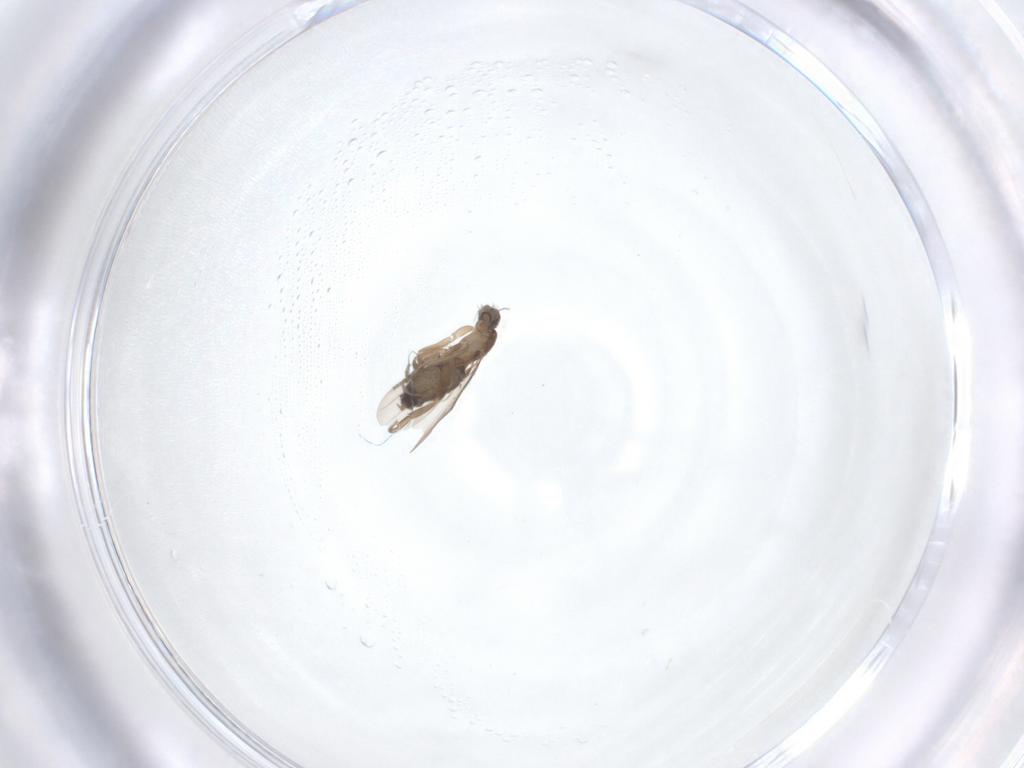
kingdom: Animalia
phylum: Arthropoda
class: Insecta
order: Diptera
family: Phoridae
